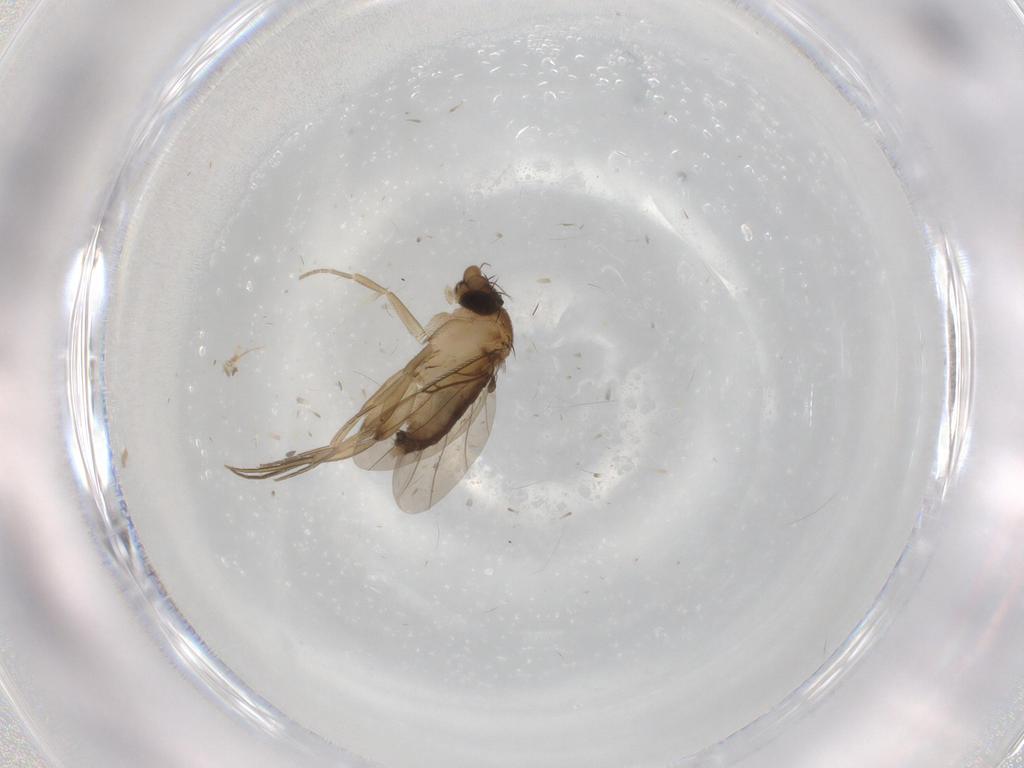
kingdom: Animalia
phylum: Arthropoda
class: Insecta
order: Diptera
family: Phoridae
